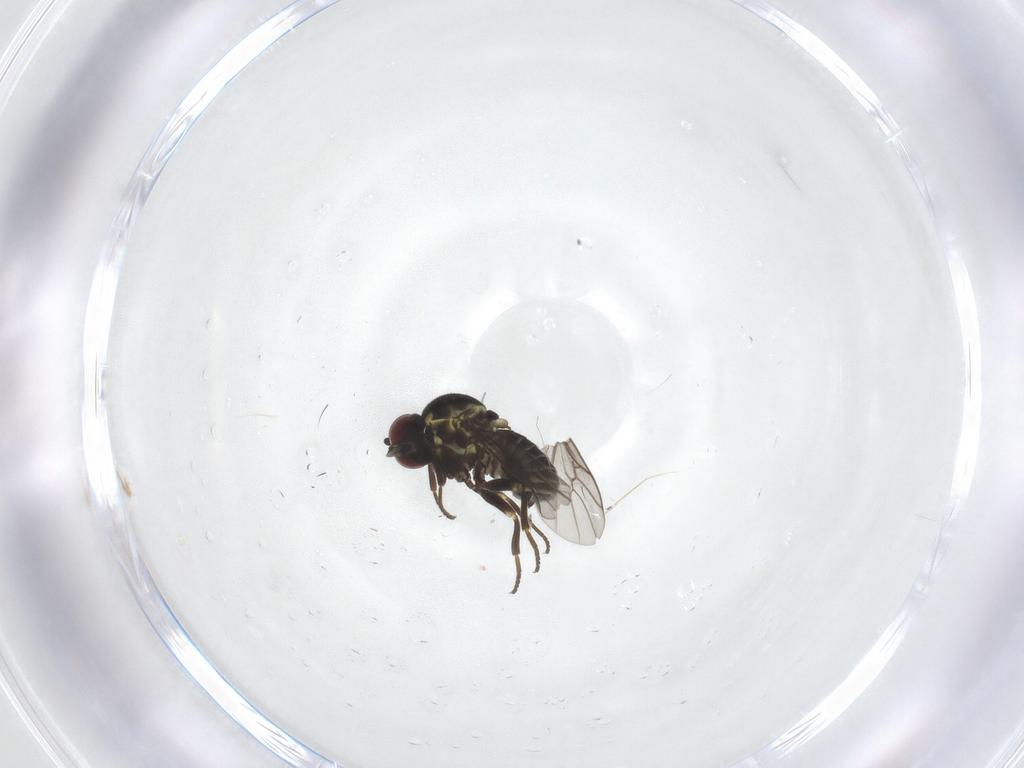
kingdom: Animalia
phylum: Arthropoda
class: Insecta
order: Diptera
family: Bombyliidae
